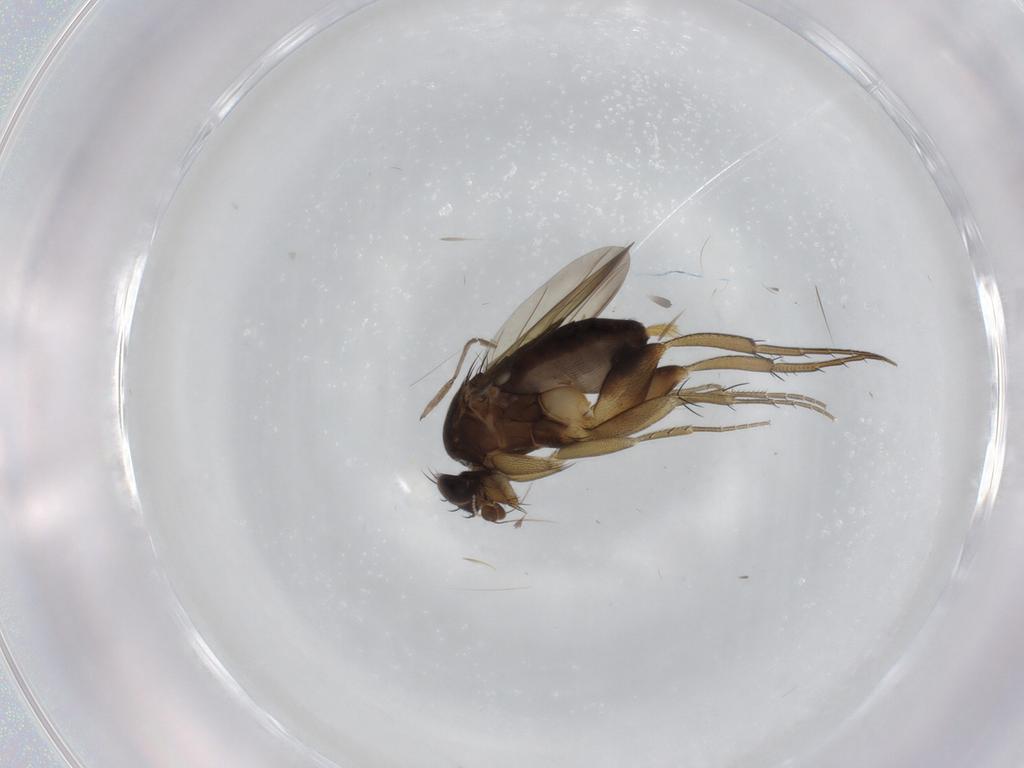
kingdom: Animalia
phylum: Arthropoda
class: Insecta
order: Diptera
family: Phoridae
